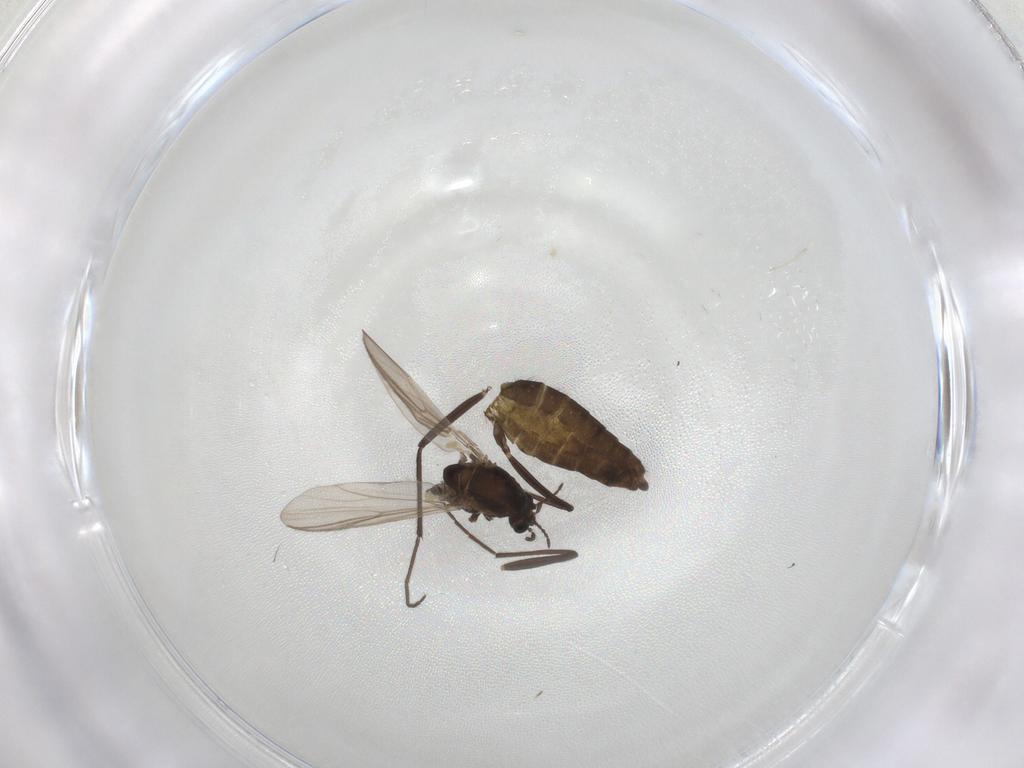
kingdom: Animalia
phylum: Arthropoda
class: Insecta
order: Diptera
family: Chironomidae
